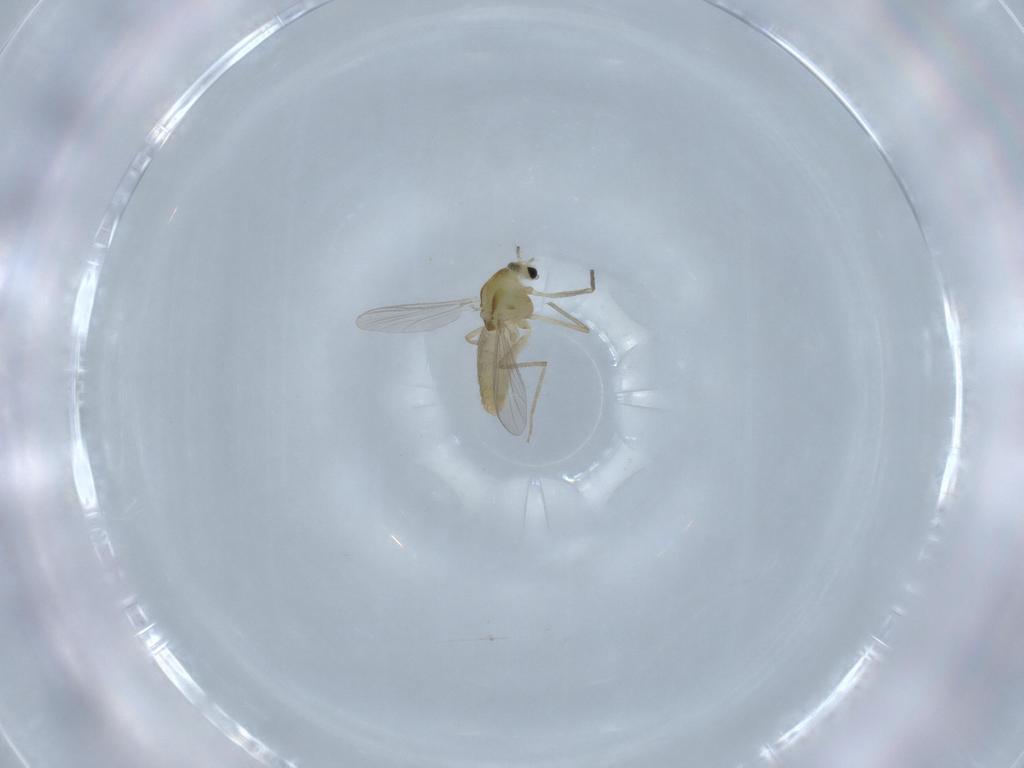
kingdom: Animalia
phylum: Arthropoda
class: Insecta
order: Diptera
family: Chironomidae
